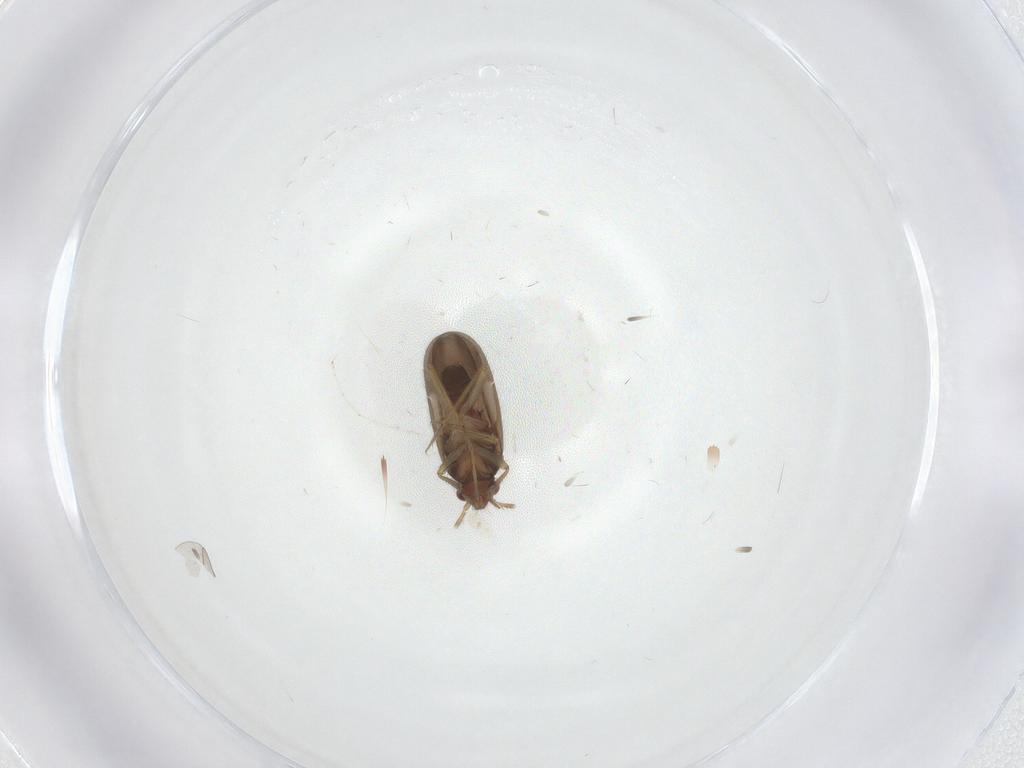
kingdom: Animalia
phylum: Arthropoda
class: Insecta
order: Hemiptera
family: Ceratocombidae
